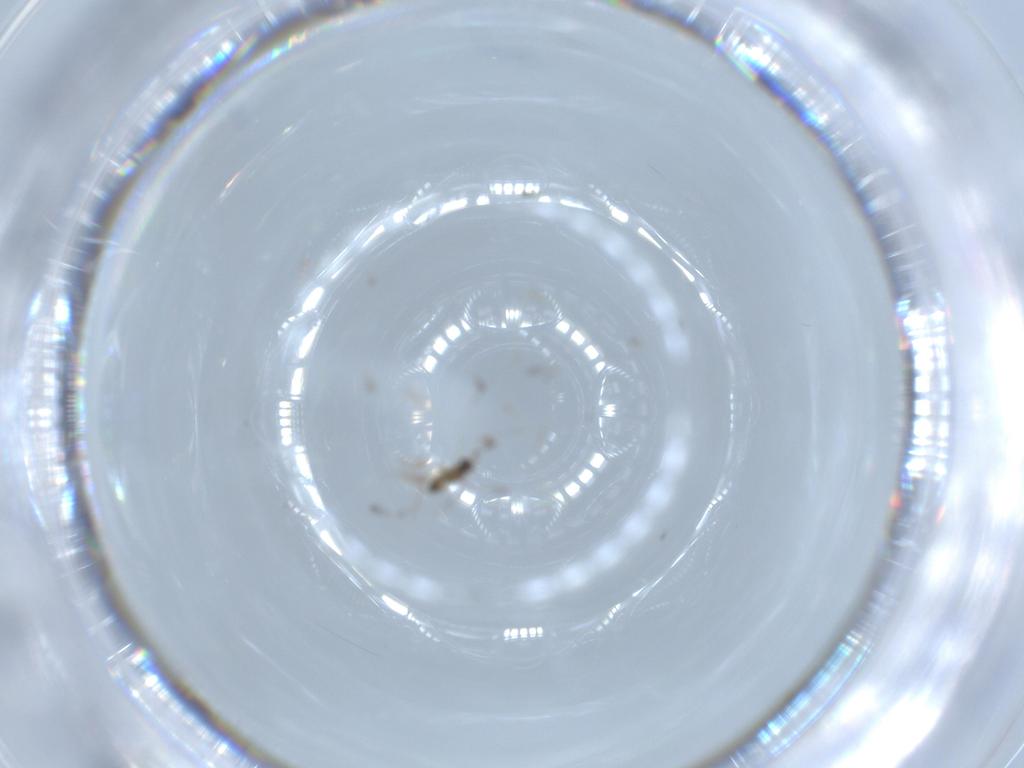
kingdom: Animalia
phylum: Arthropoda
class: Insecta
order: Hymenoptera
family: Mymaridae
